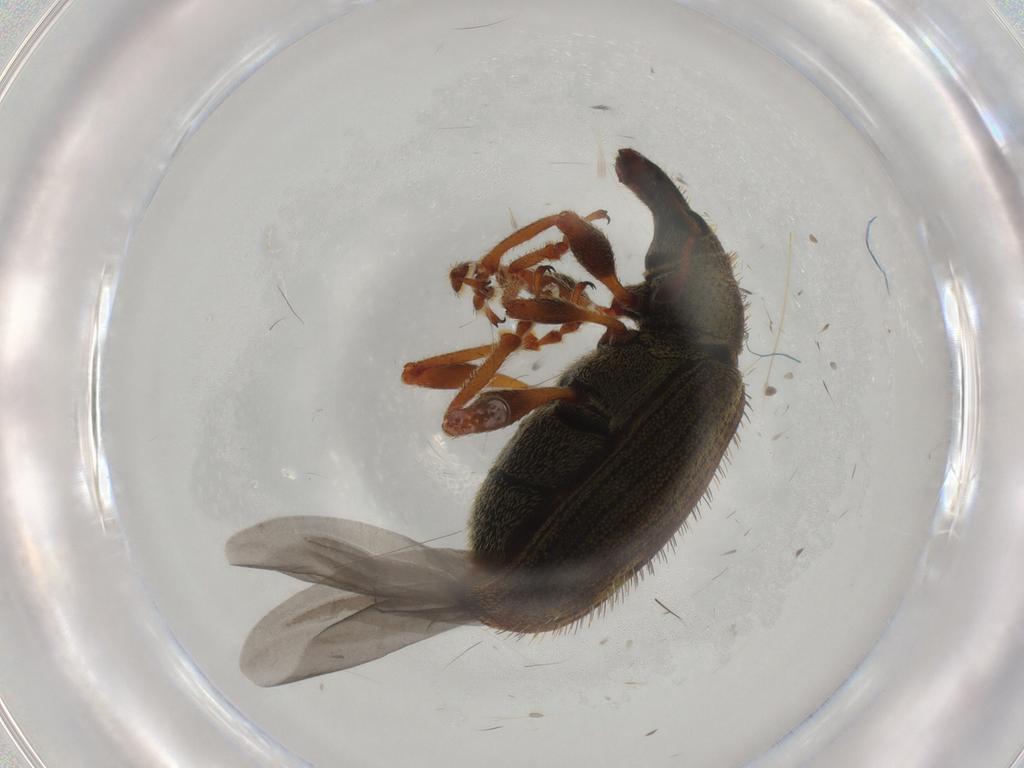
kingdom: Animalia
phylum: Arthropoda
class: Insecta
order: Coleoptera
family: Curculionidae
